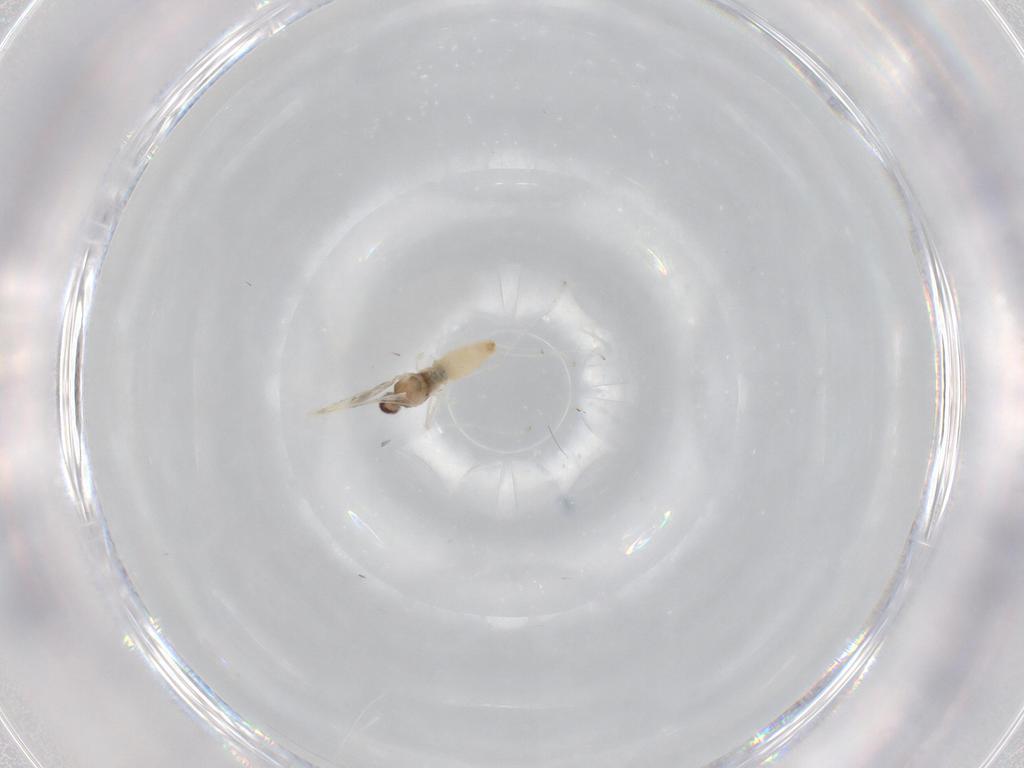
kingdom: Animalia
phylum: Arthropoda
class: Insecta
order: Diptera
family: Cecidomyiidae
